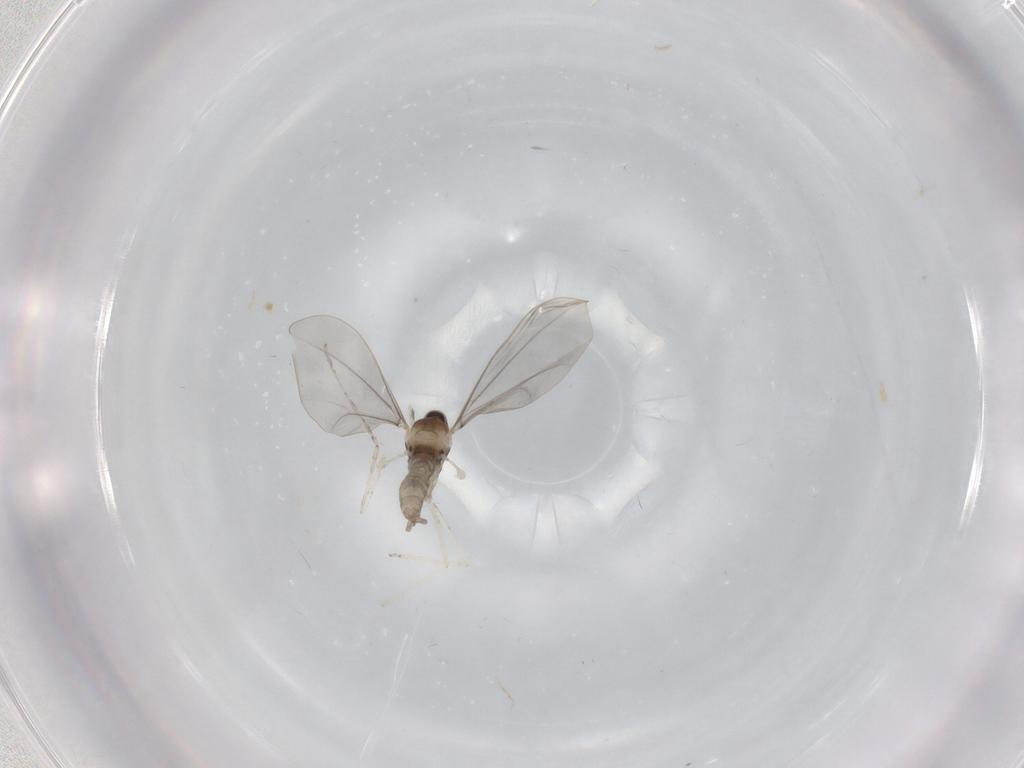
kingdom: Animalia
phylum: Arthropoda
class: Insecta
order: Diptera
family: Cecidomyiidae
